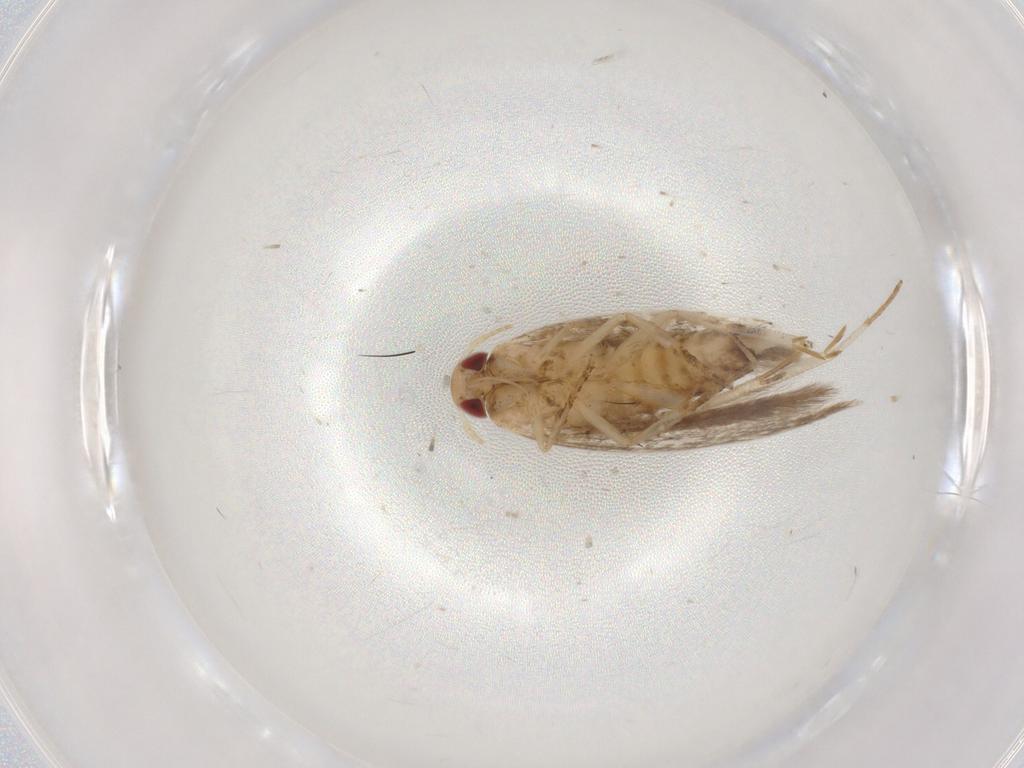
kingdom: Animalia
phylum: Arthropoda
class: Insecta
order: Lepidoptera
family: Gelechiidae
